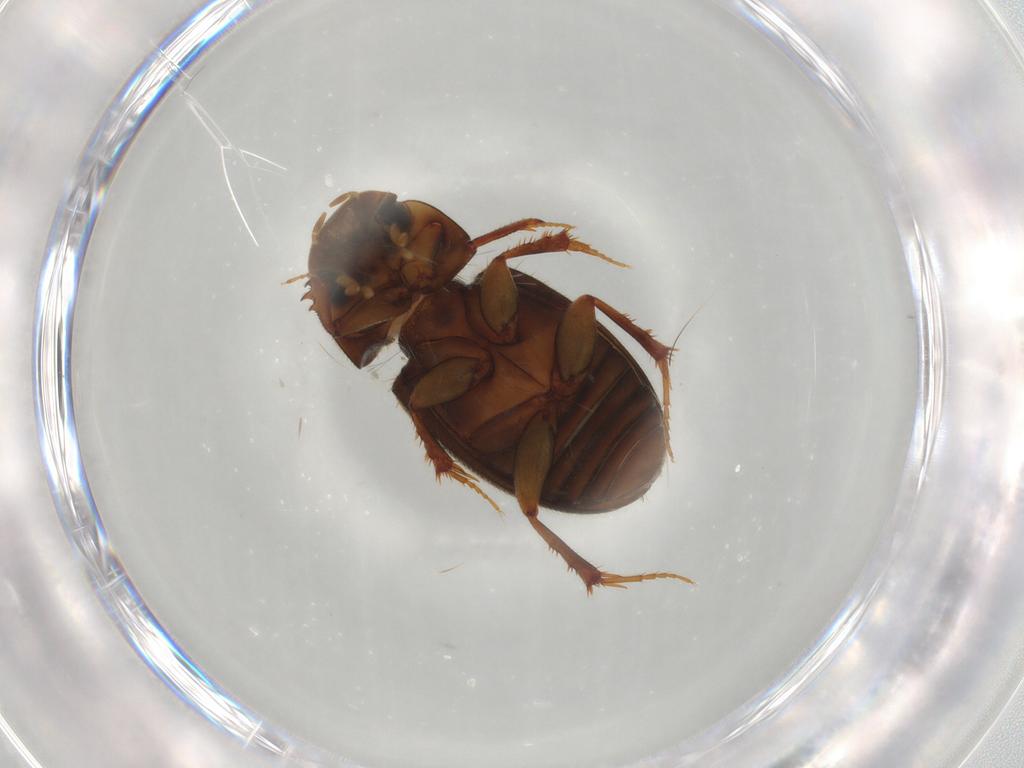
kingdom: Animalia
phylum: Arthropoda
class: Insecta
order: Coleoptera
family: Scarabaeidae
